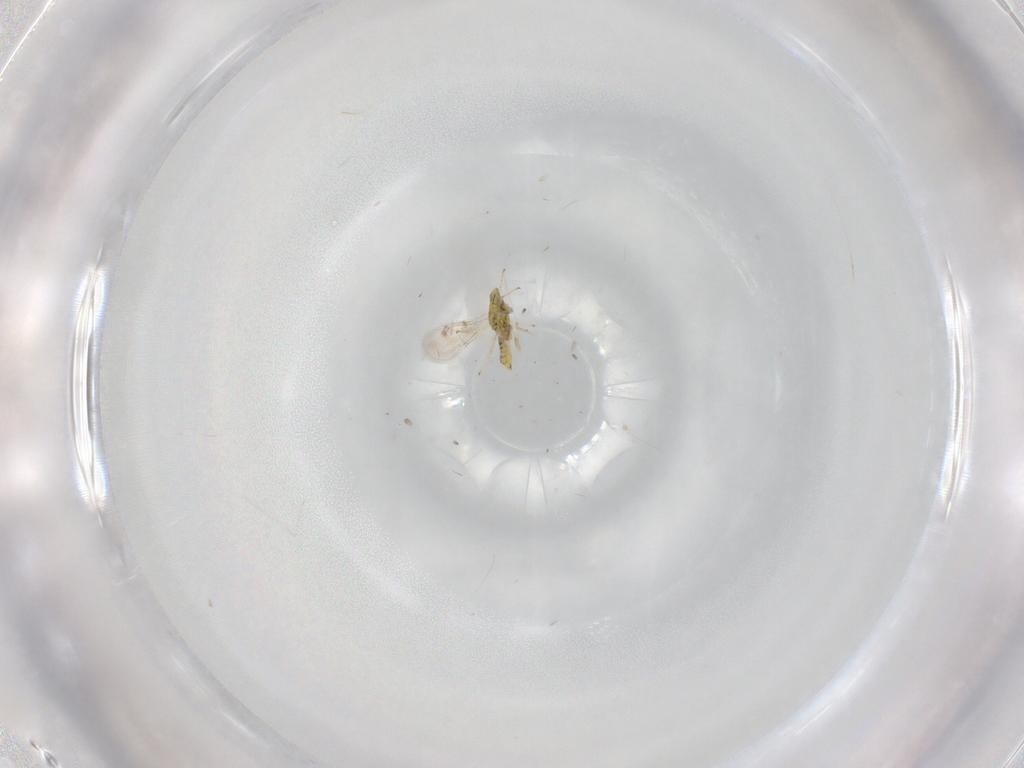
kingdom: Animalia
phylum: Arthropoda
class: Insecta
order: Hymenoptera
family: Eulophidae
